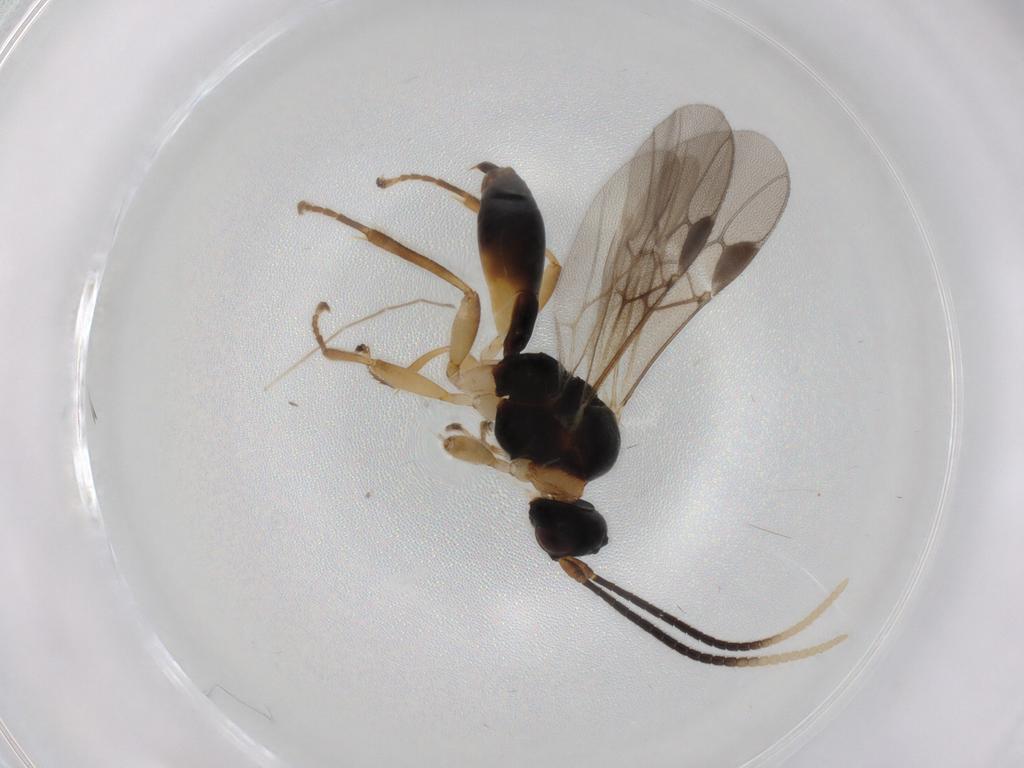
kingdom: Animalia
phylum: Arthropoda
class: Insecta
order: Hymenoptera
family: Braconidae
